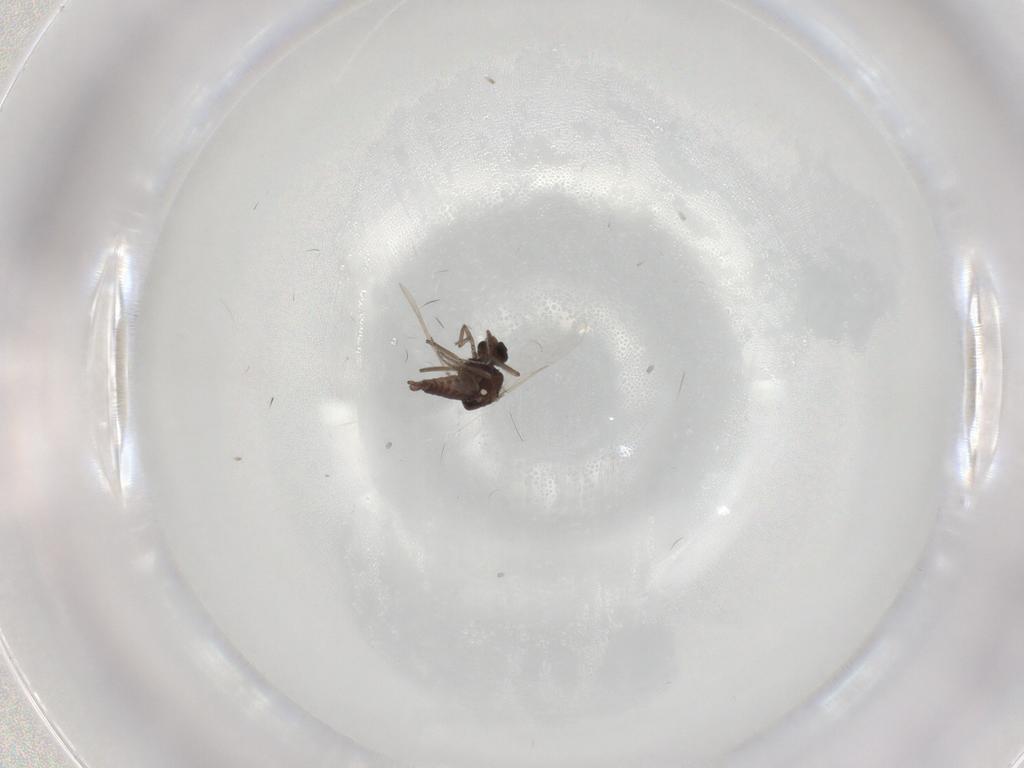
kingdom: Animalia
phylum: Arthropoda
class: Insecta
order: Diptera
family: Ceratopogonidae
